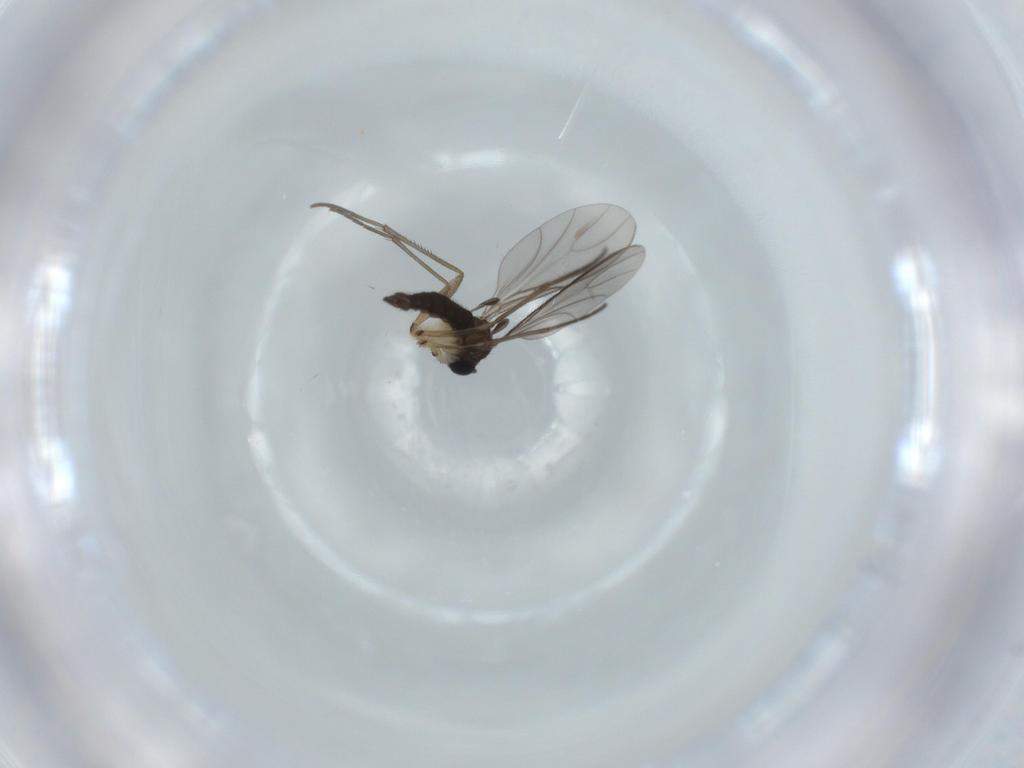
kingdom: Animalia
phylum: Arthropoda
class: Insecta
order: Diptera
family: Sciaridae
